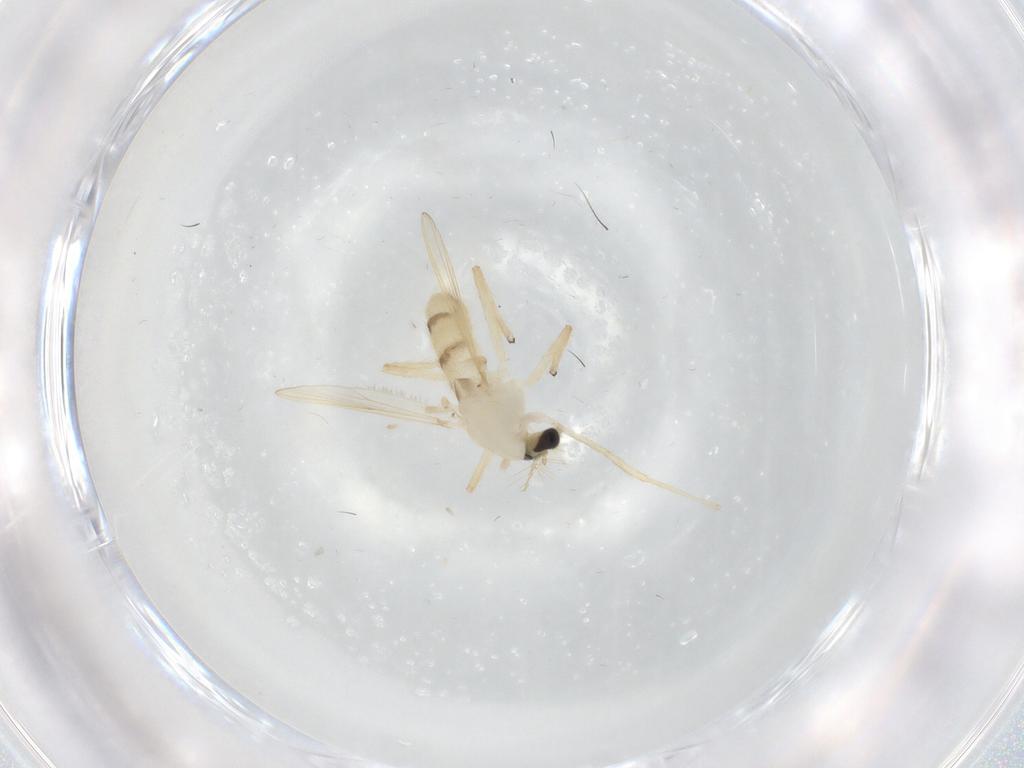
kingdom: Animalia
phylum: Arthropoda
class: Insecta
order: Diptera
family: Chironomidae
